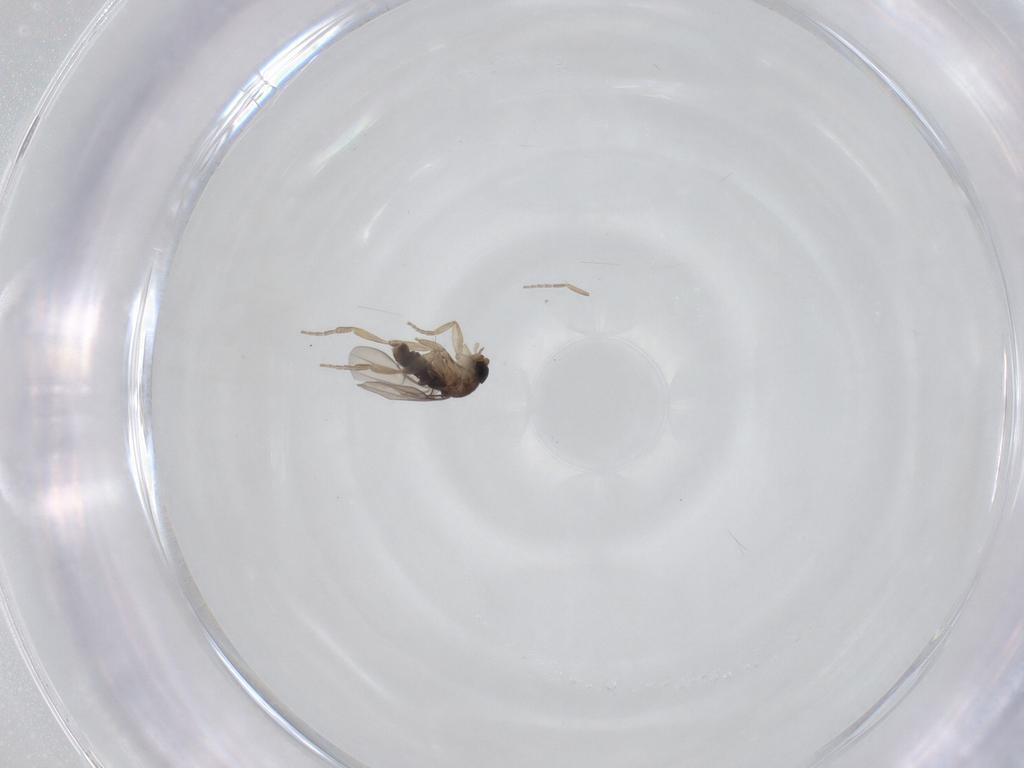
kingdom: Animalia
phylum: Arthropoda
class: Insecta
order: Diptera
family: Phoridae
